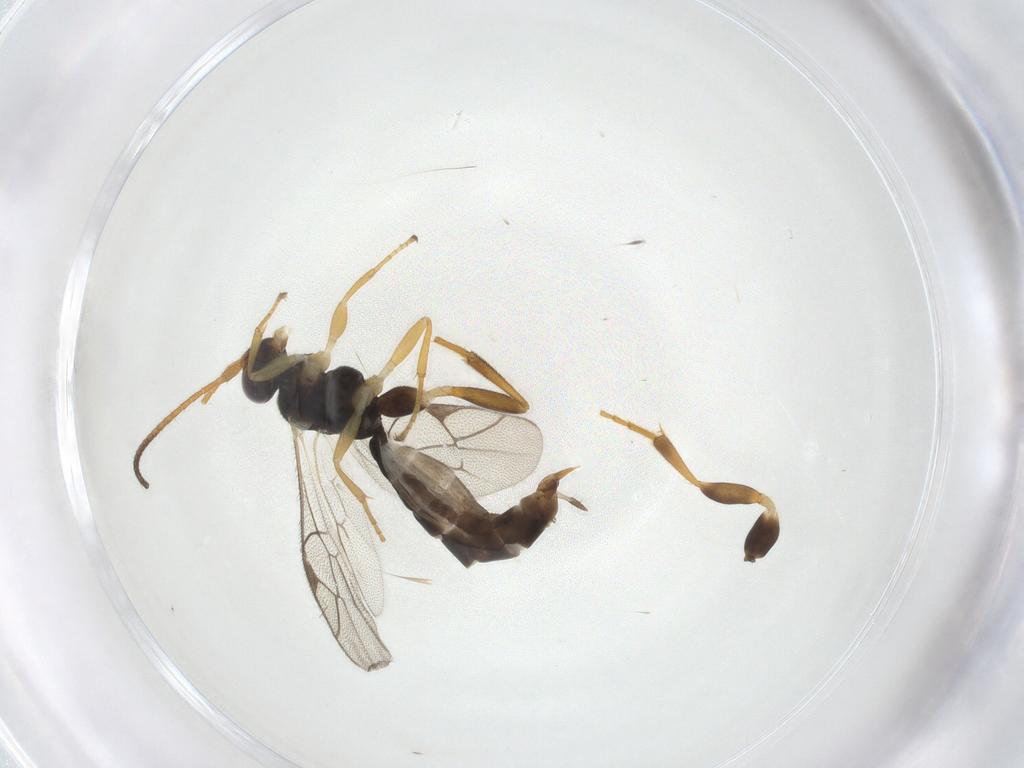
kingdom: Animalia
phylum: Arthropoda
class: Insecta
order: Hymenoptera
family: Ichneumonidae
